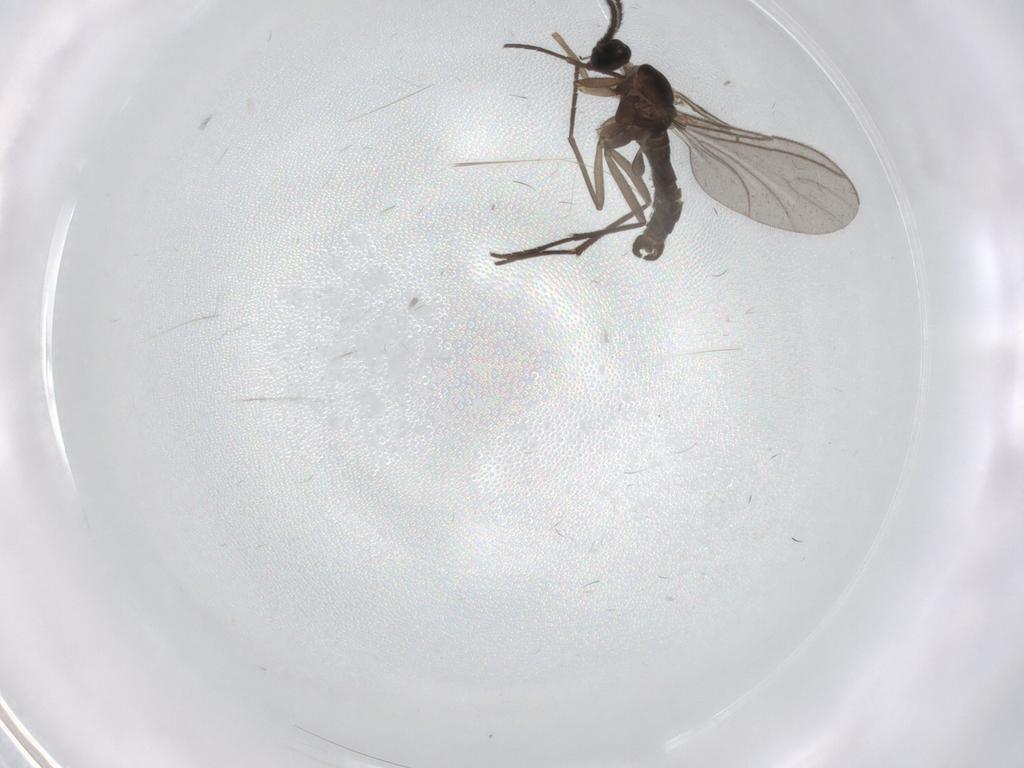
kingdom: Animalia
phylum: Arthropoda
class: Insecta
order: Diptera
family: Sciaridae
